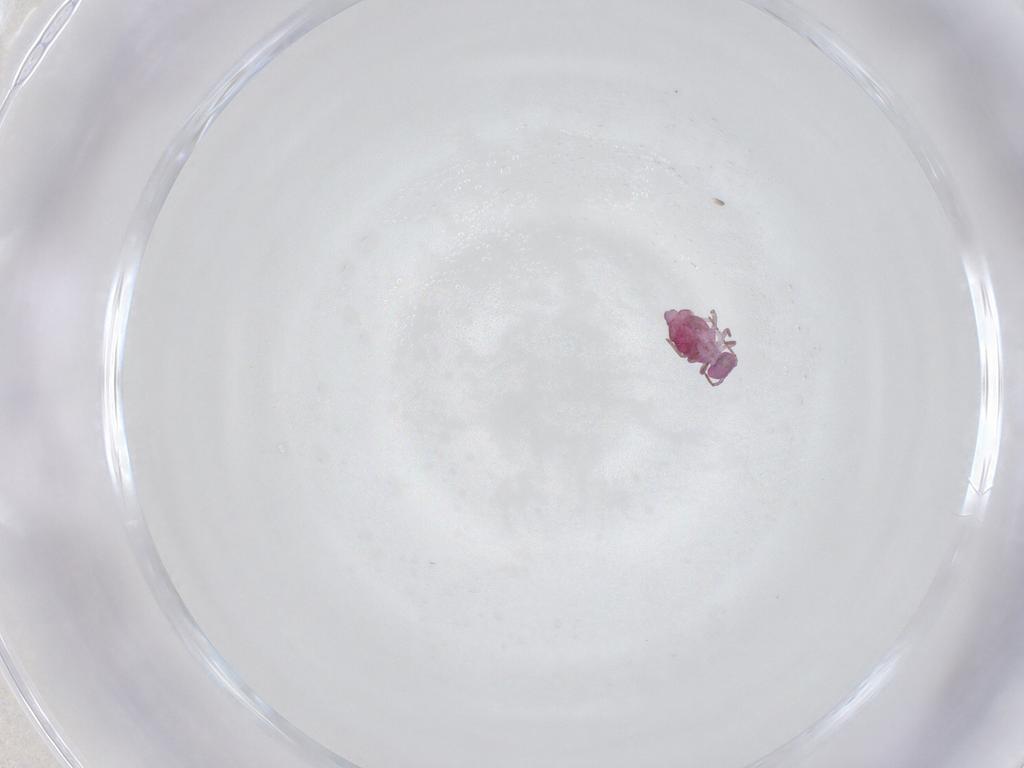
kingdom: Animalia
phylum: Arthropoda
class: Collembola
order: Symphypleona
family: Sminthuridae
